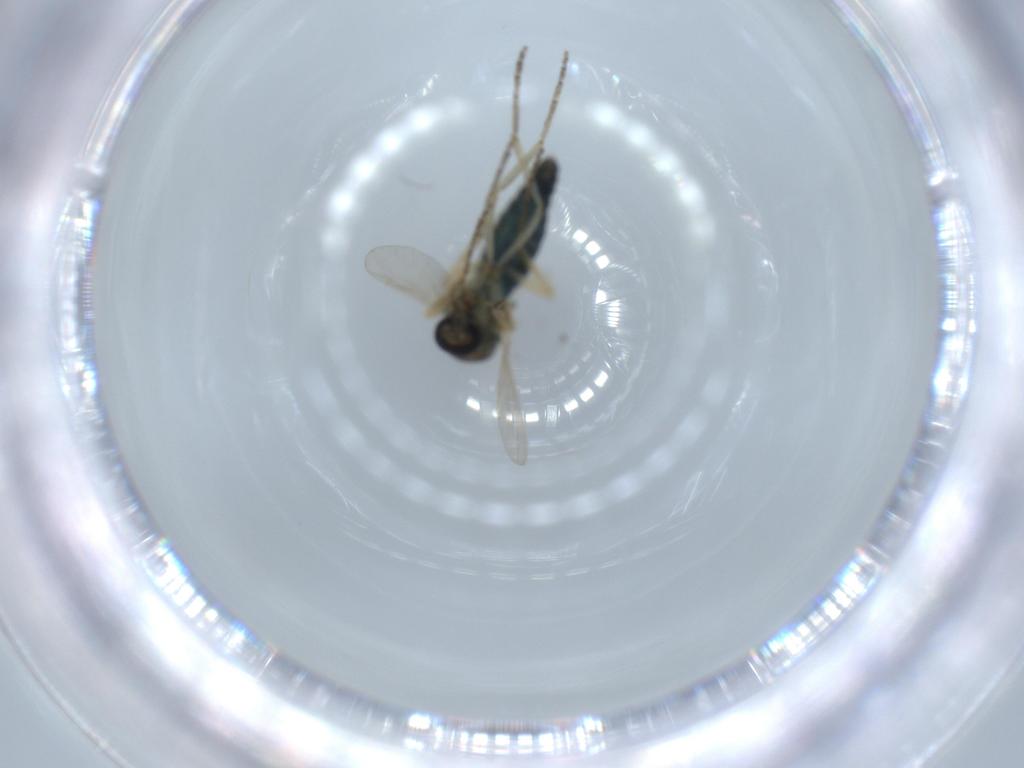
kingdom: Animalia
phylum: Arthropoda
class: Insecta
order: Diptera
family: Ceratopogonidae
